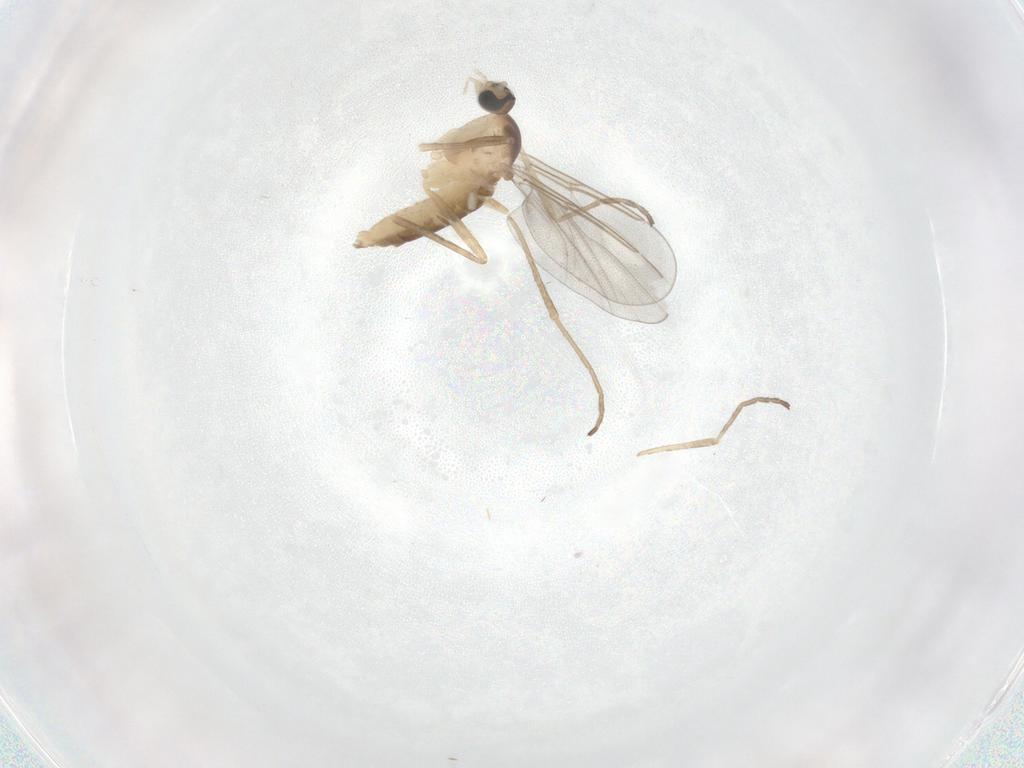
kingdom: Animalia
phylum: Arthropoda
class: Insecta
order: Diptera
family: Cecidomyiidae
